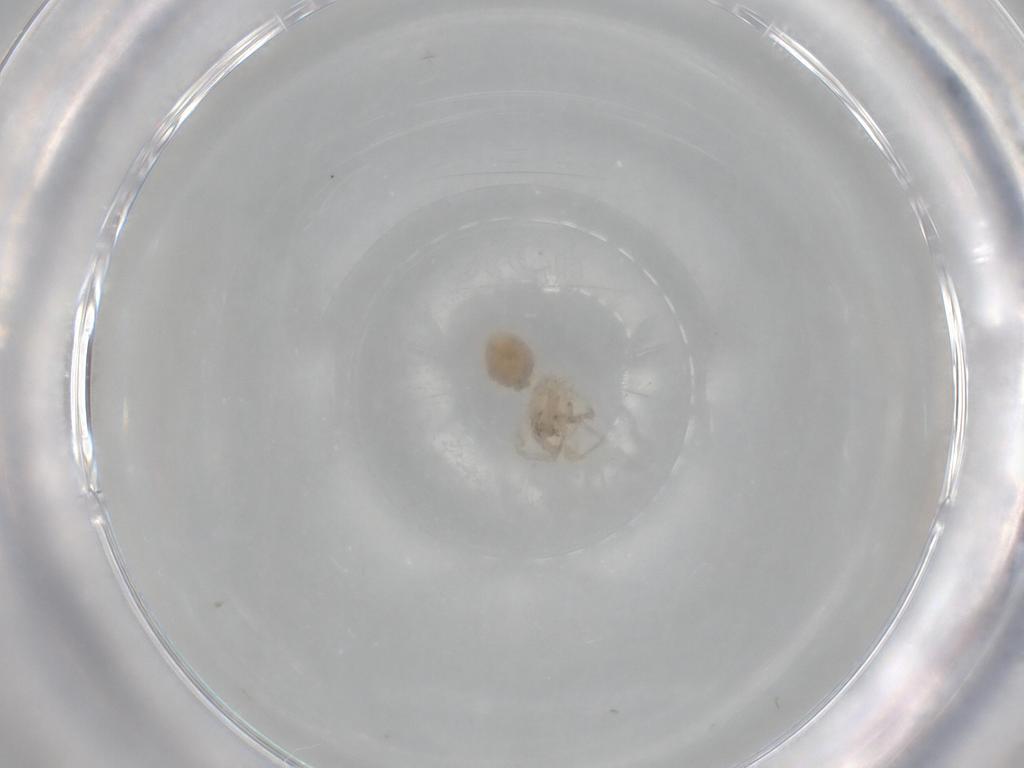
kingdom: Animalia
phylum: Arthropoda
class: Arachnida
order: Araneae
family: Oonopidae
